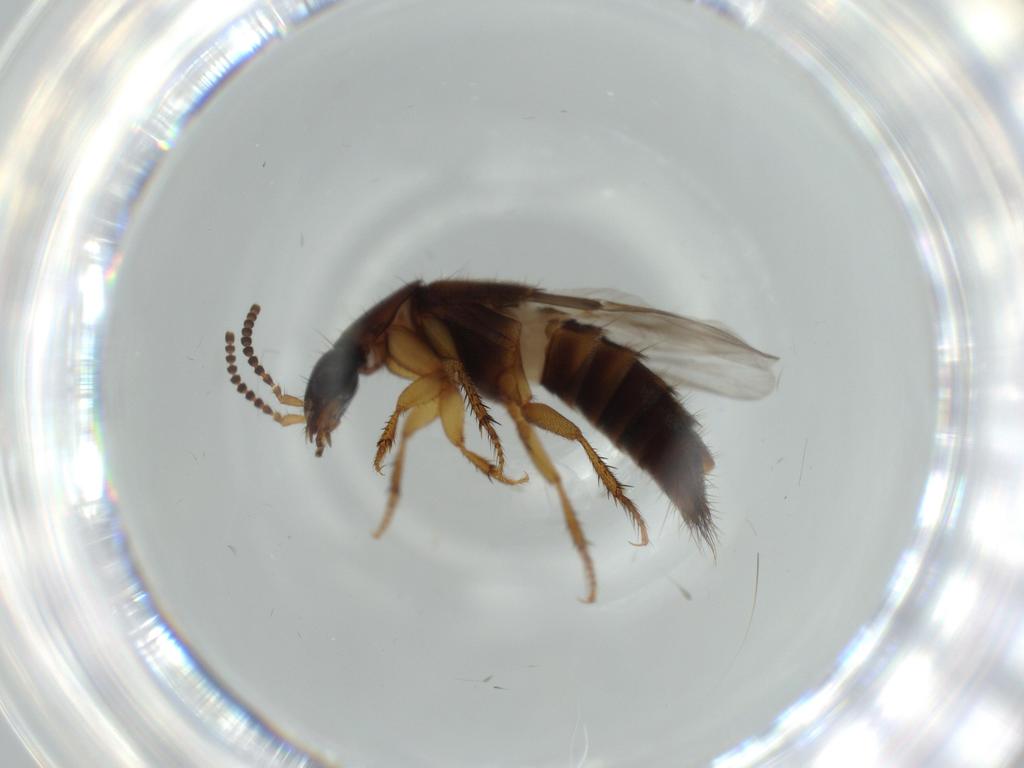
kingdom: Animalia
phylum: Arthropoda
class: Insecta
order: Coleoptera
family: Staphylinidae
